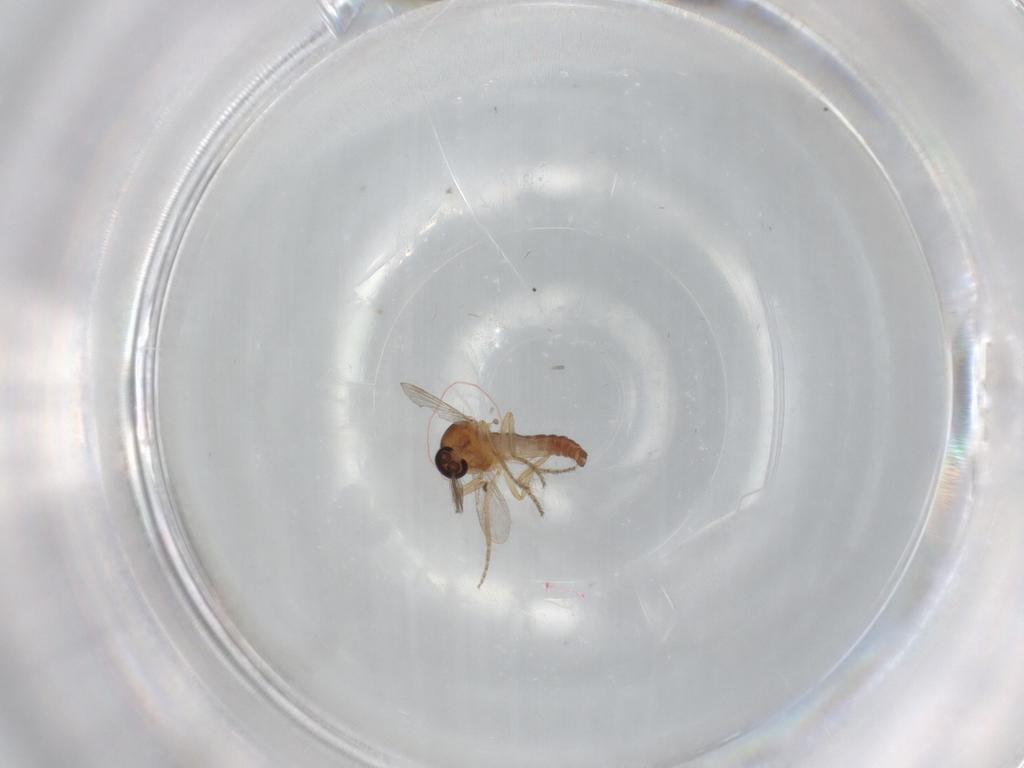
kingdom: Animalia
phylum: Arthropoda
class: Insecta
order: Diptera
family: Ceratopogonidae
